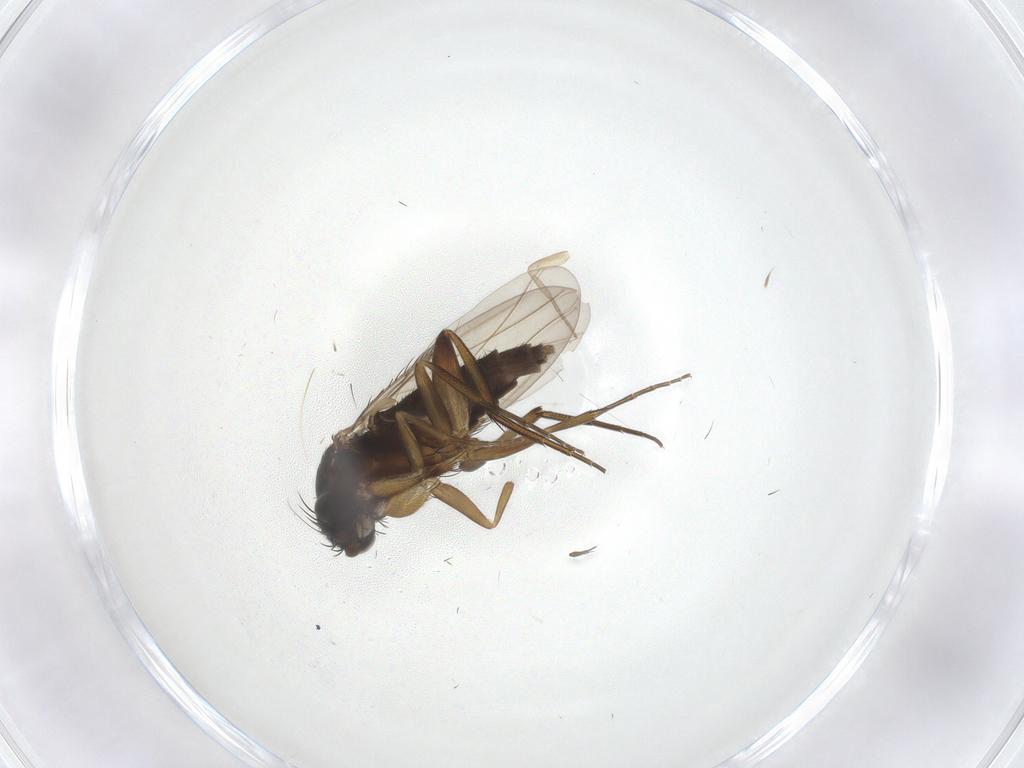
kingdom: Animalia
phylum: Arthropoda
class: Insecta
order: Diptera
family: Phoridae
